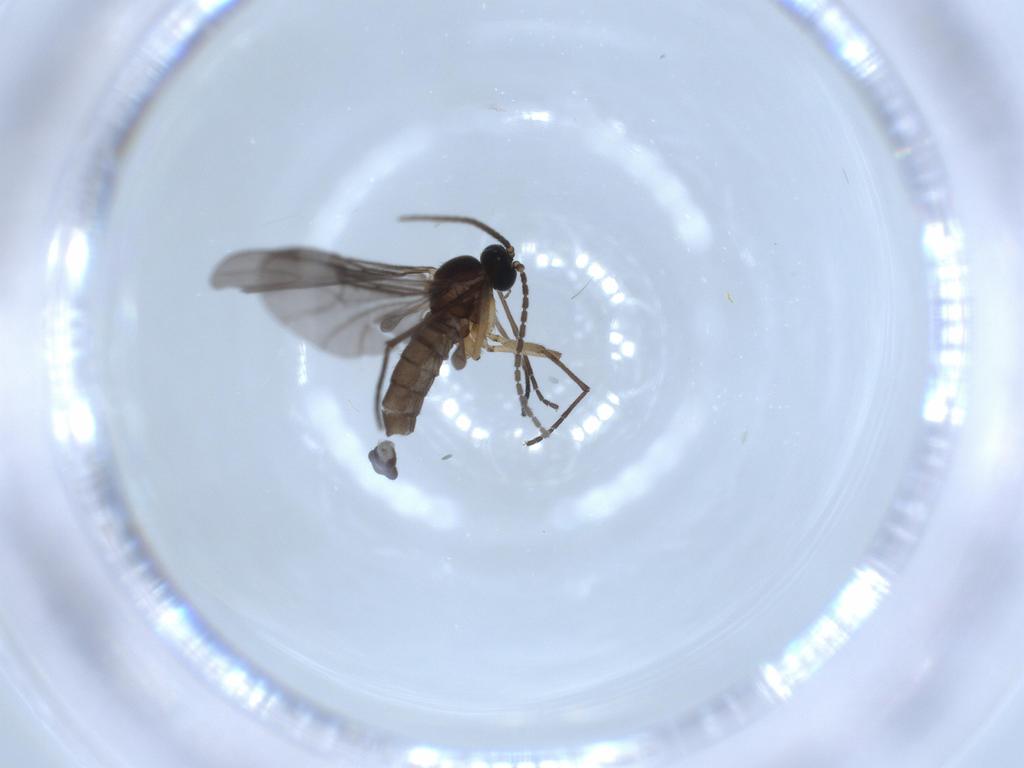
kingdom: Animalia
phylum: Arthropoda
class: Insecta
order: Diptera
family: Sciaridae
